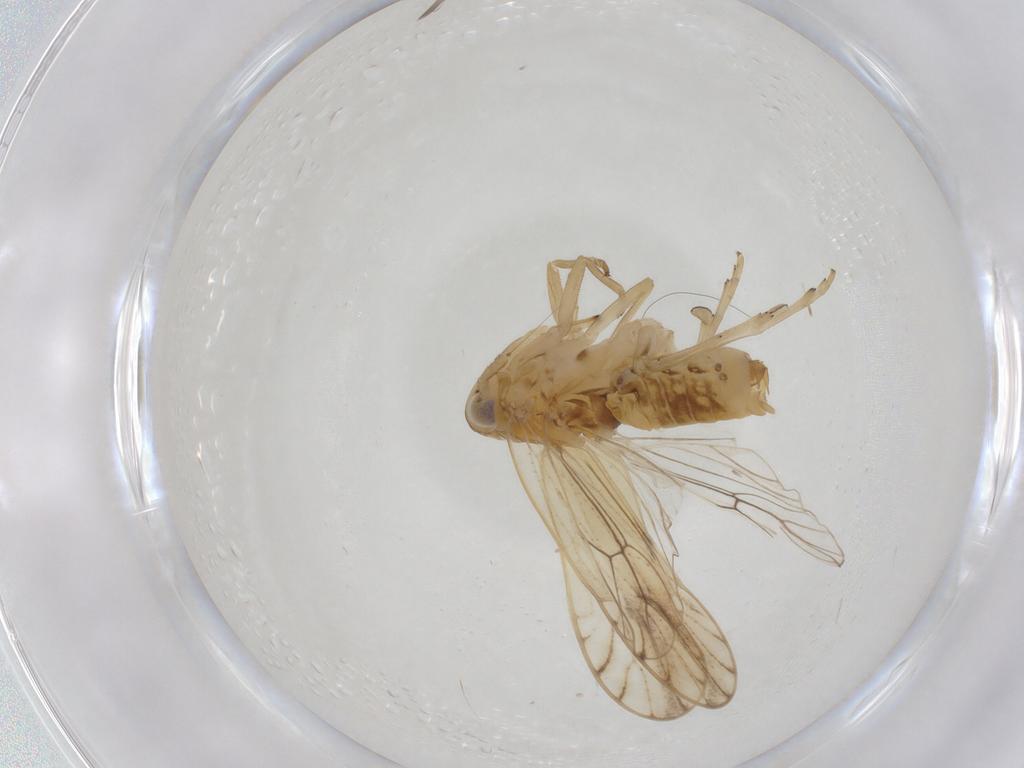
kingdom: Animalia
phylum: Arthropoda
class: Insecta
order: Hemiptera
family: Delphacidae
